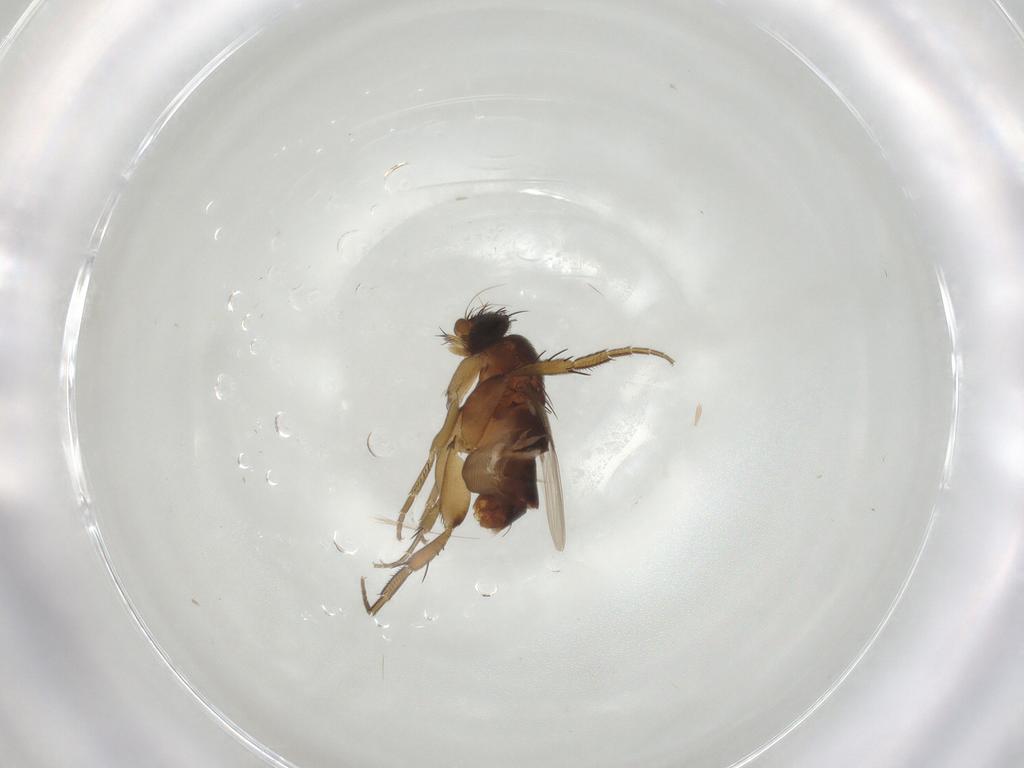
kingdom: Animalia
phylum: Arthropoda
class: Insecta
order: Diptera
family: Phoridae
